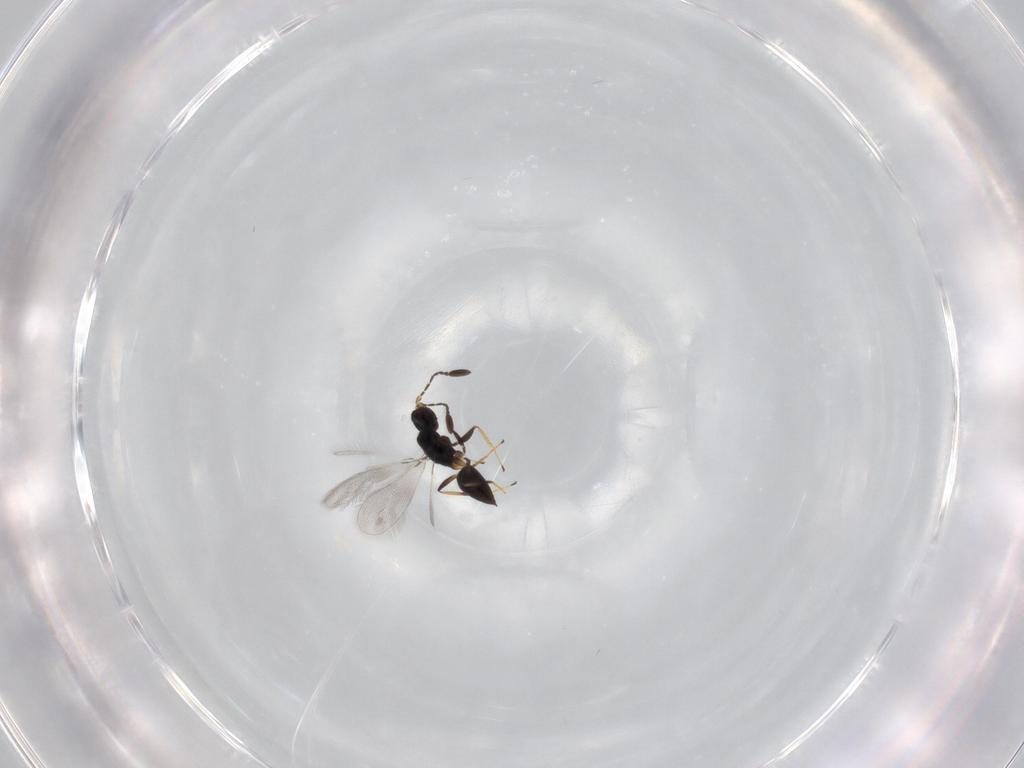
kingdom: Animalia
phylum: Arthropoda
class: Insecta
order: Hymenoptera
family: Mymaridae
